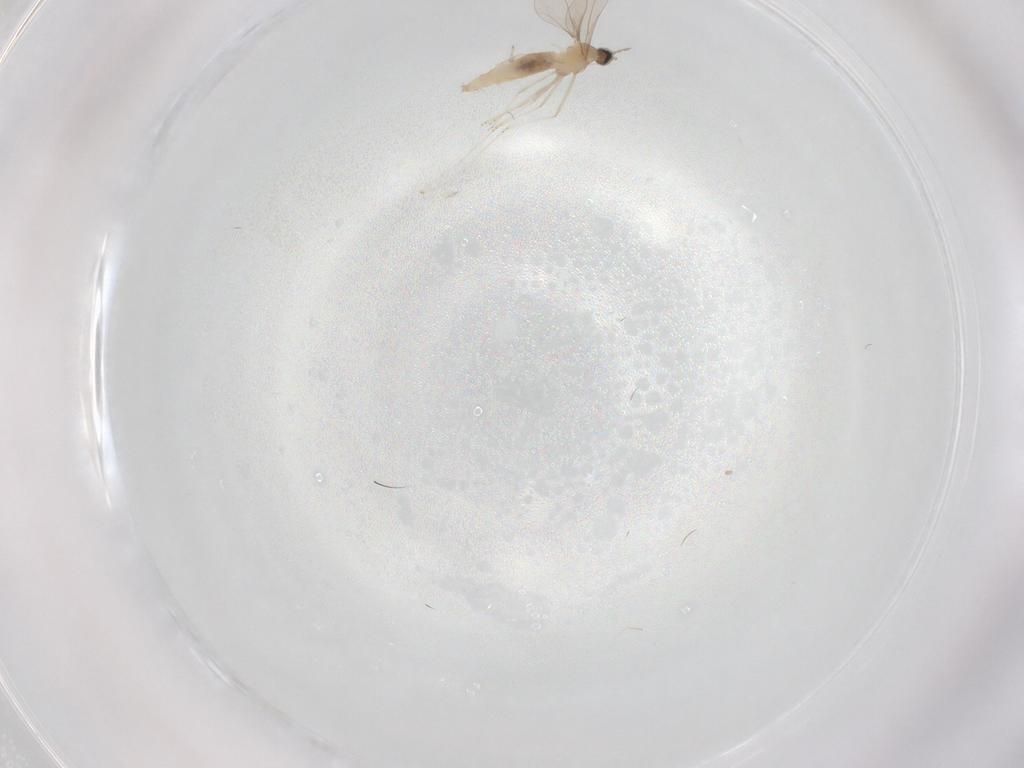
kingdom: Animalia
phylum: Arthropoda
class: Insecta
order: Diptera
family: Cecidomyiidae
